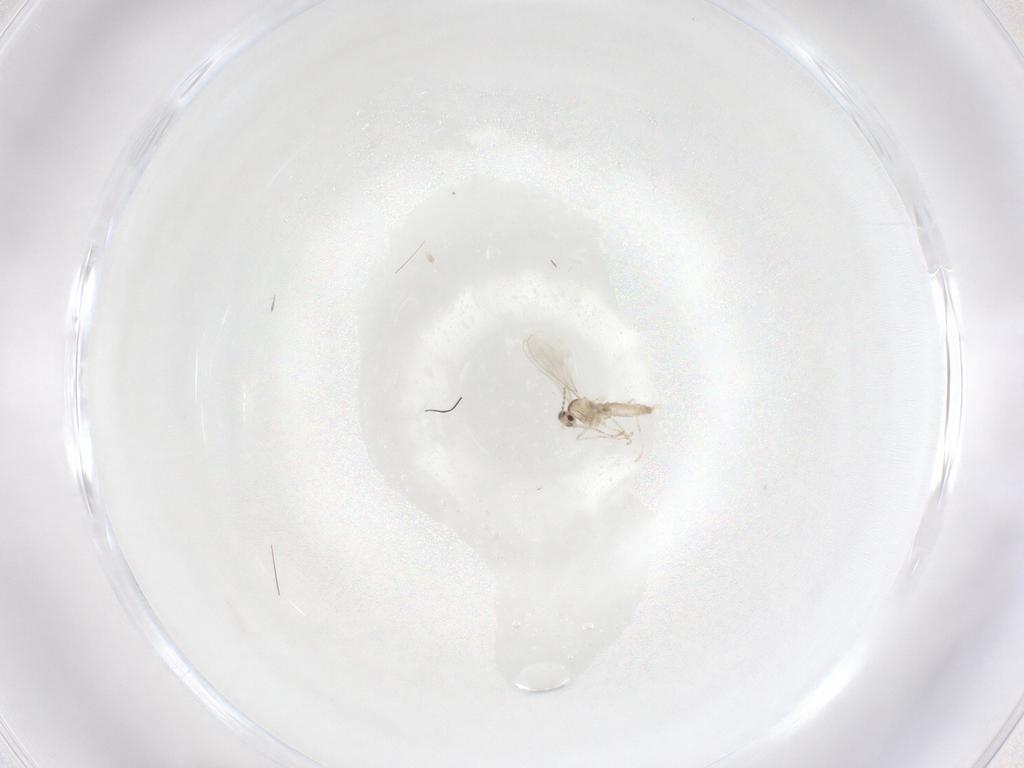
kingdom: Animalia
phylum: Arthropoda
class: Insecta
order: Diptera
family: Cecidomyiidae
